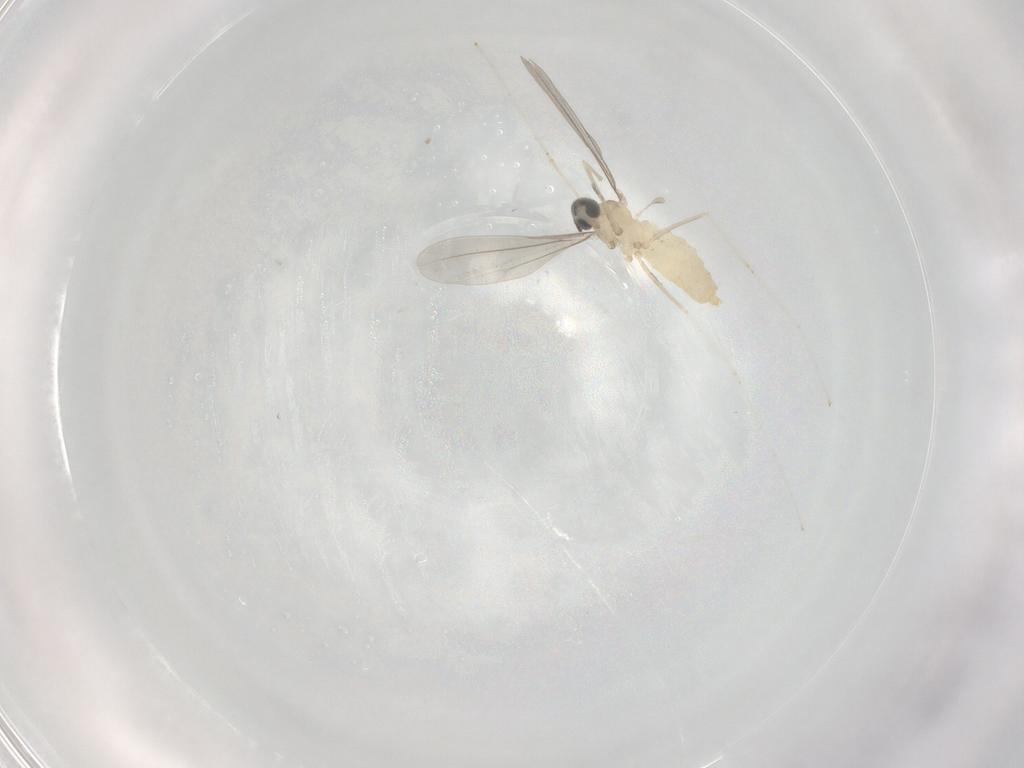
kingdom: Animalia
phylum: Arthropoda
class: Insecta
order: Diptera
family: Cecidomyiidae
